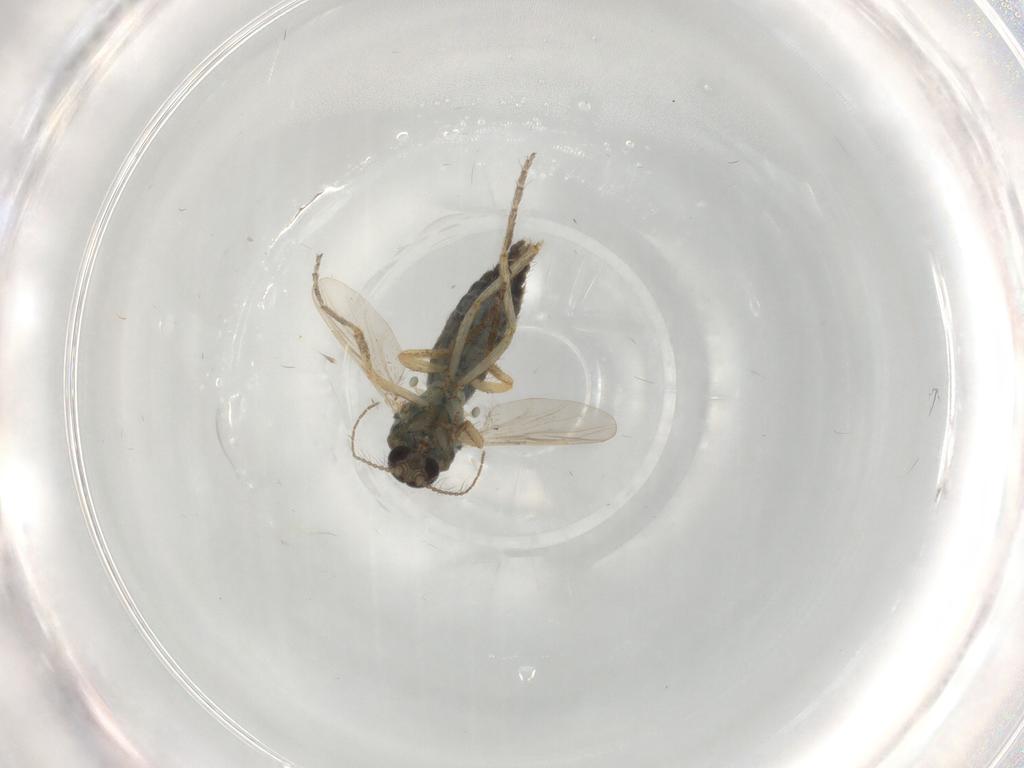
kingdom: Animalia
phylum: Arthropoda
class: Insecta
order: Diptera
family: Ceratopogonidae
